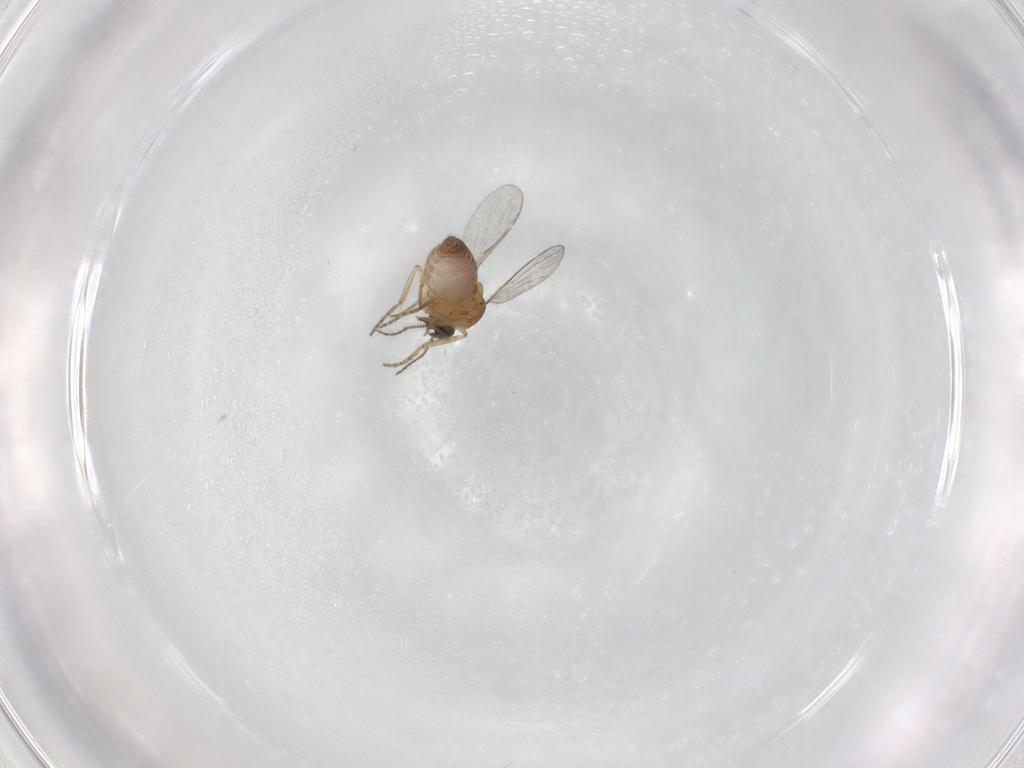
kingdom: Animalia
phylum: Arthropoda
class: Insecta
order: Diptera
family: Ceratopogonidae
